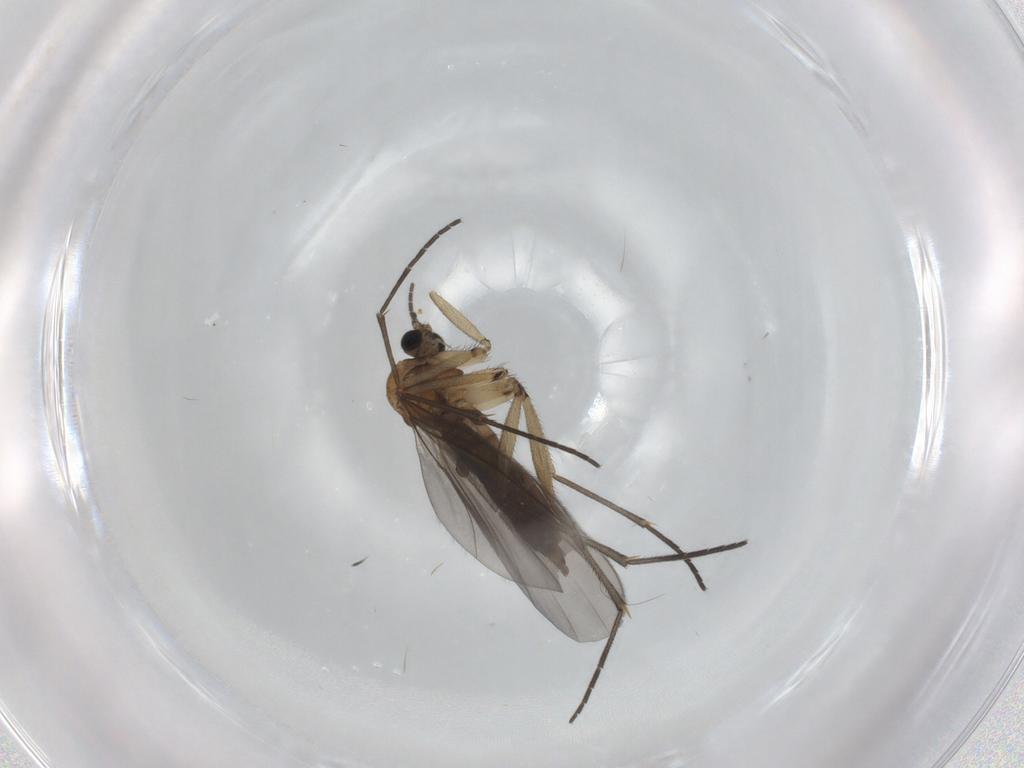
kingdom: Animalia
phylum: Arthropoda
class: Insecta
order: Diptera
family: Sciaridae
